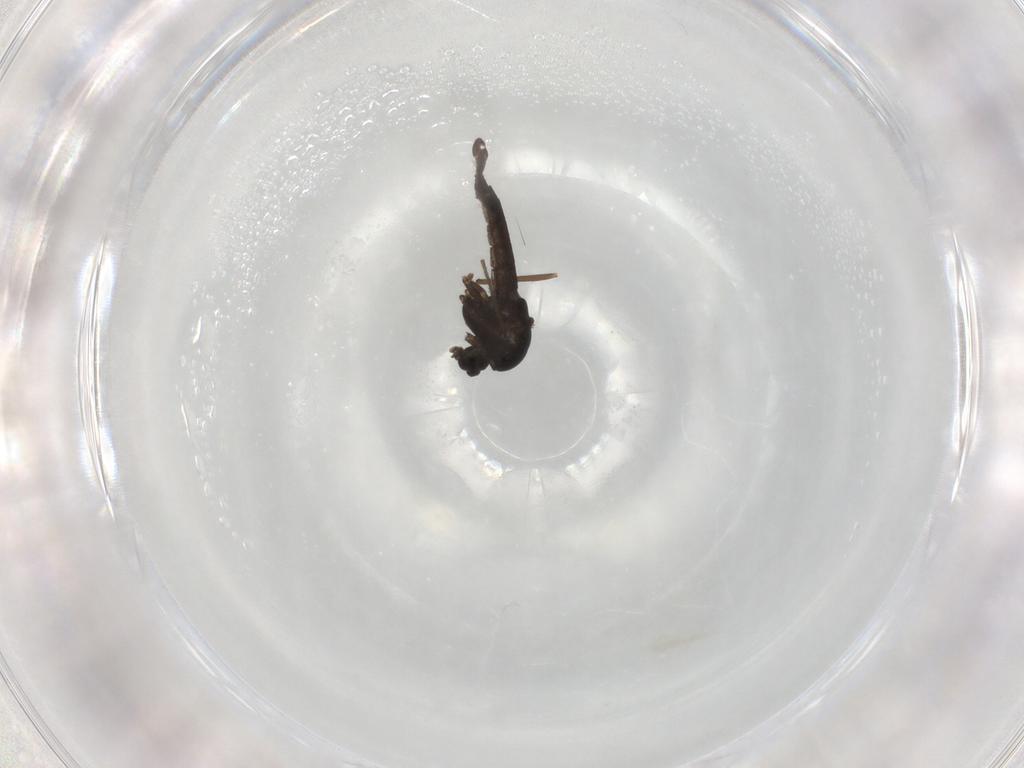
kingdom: Animalia
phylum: Arthropoda
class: Insecta
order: Diptera
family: Chironomidae
